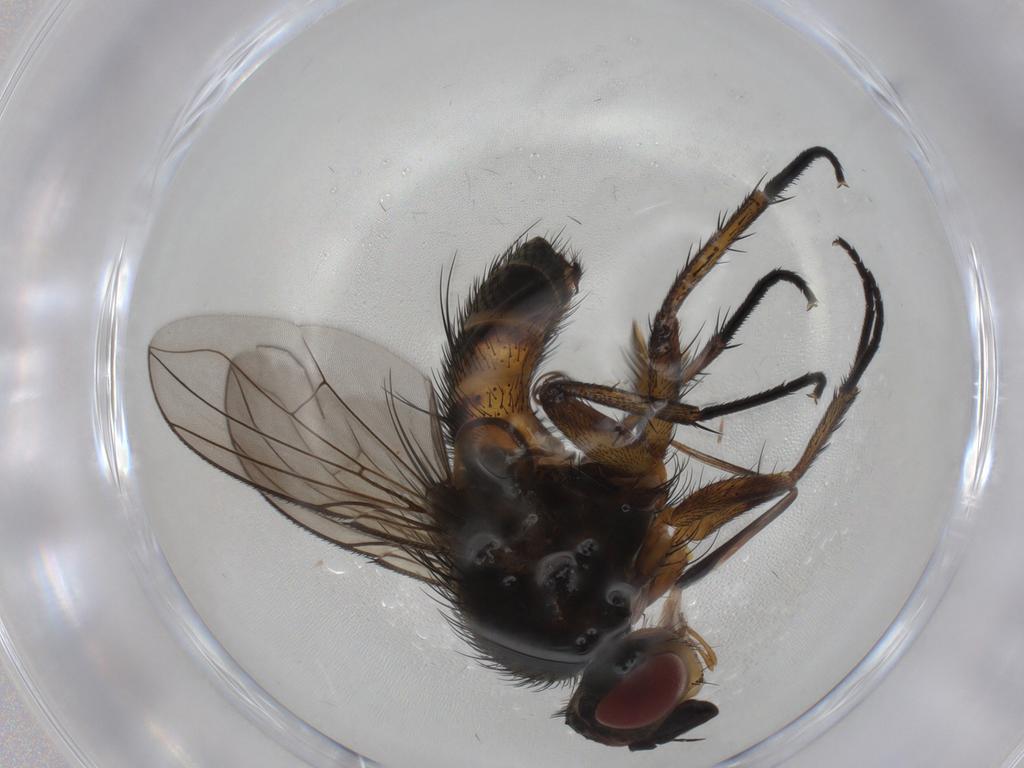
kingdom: Animalia
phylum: Arthropoda
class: Insecta
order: Diptera
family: Tachinidae
